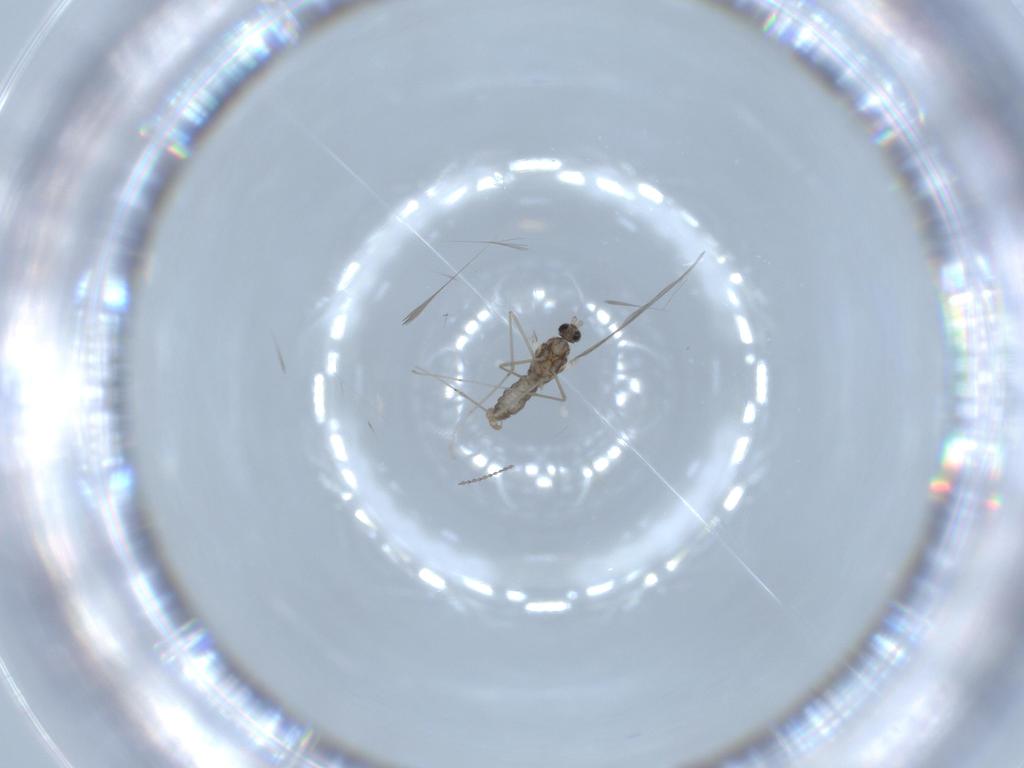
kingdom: Animalia
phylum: Arthropoda
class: Insecta
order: Diptera
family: Cecidomyiidae
